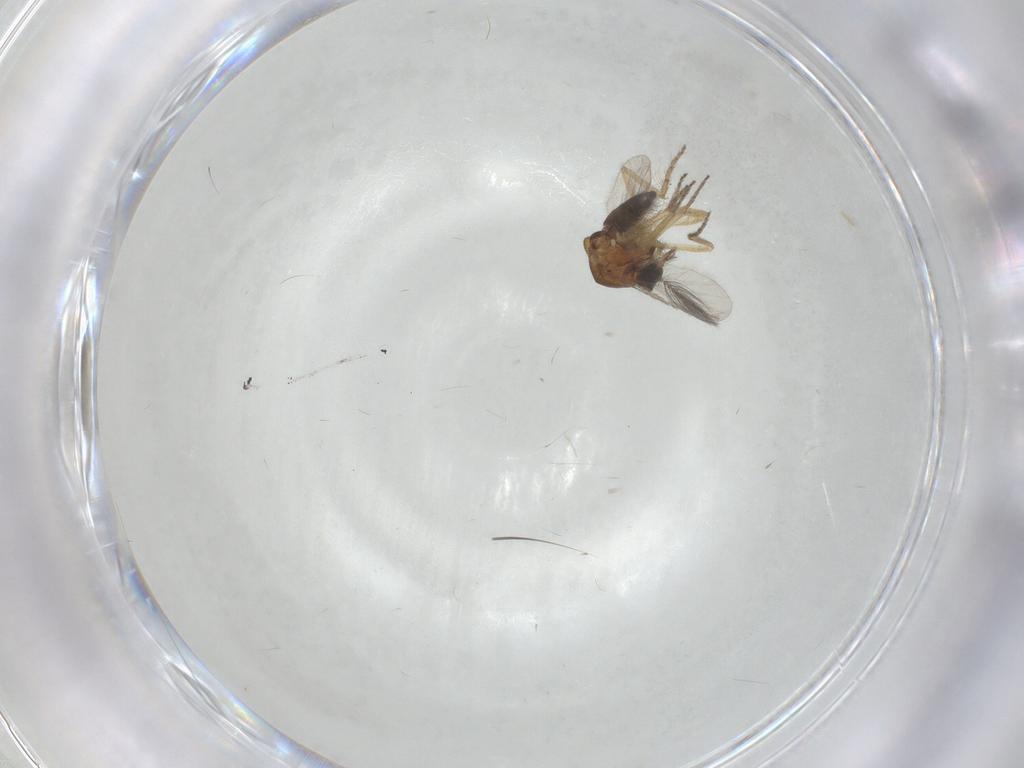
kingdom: Animalia
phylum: Arthropoda
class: Insecta
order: Diptera
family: Ceratopogonidae
